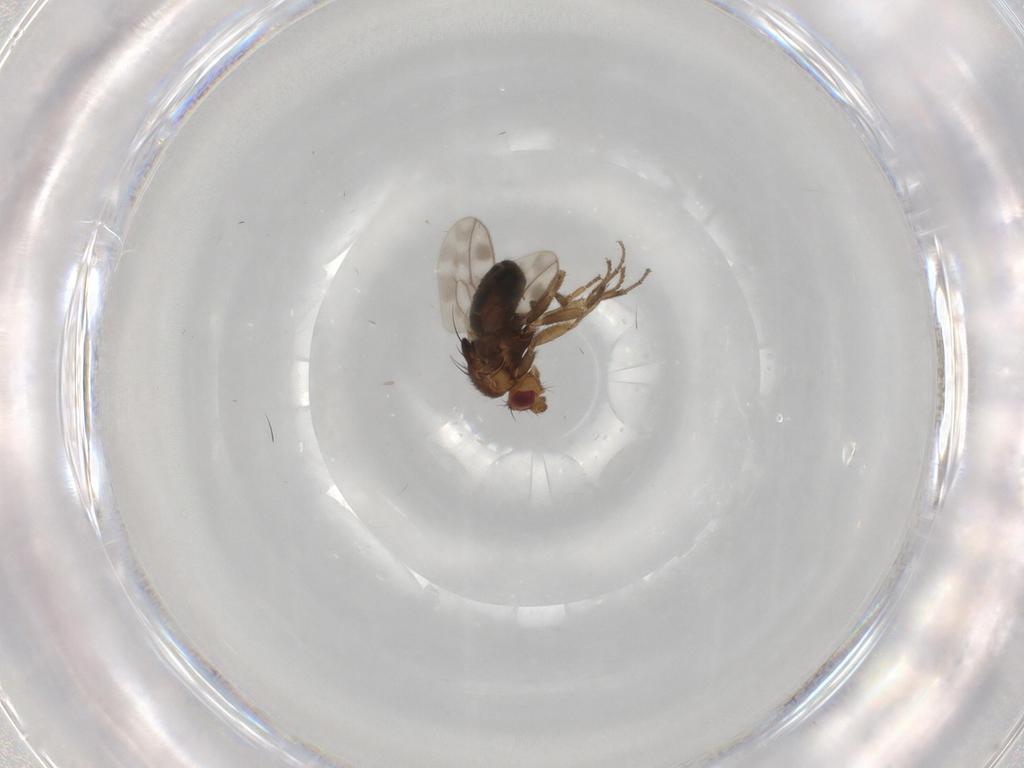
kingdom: Animalia
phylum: Arthropoda
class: Insecta
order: Diptera
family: Sphaeroceridae
